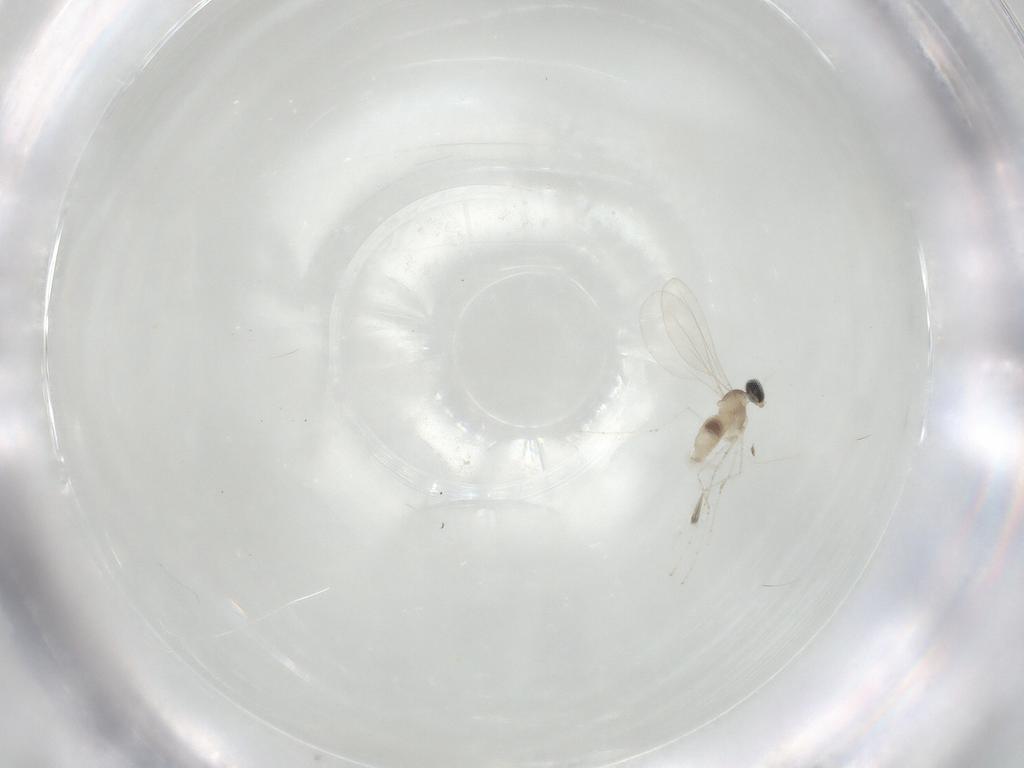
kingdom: Animalia
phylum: Arthropoda
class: Insecta
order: Diptera
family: Cecidomyiidae
